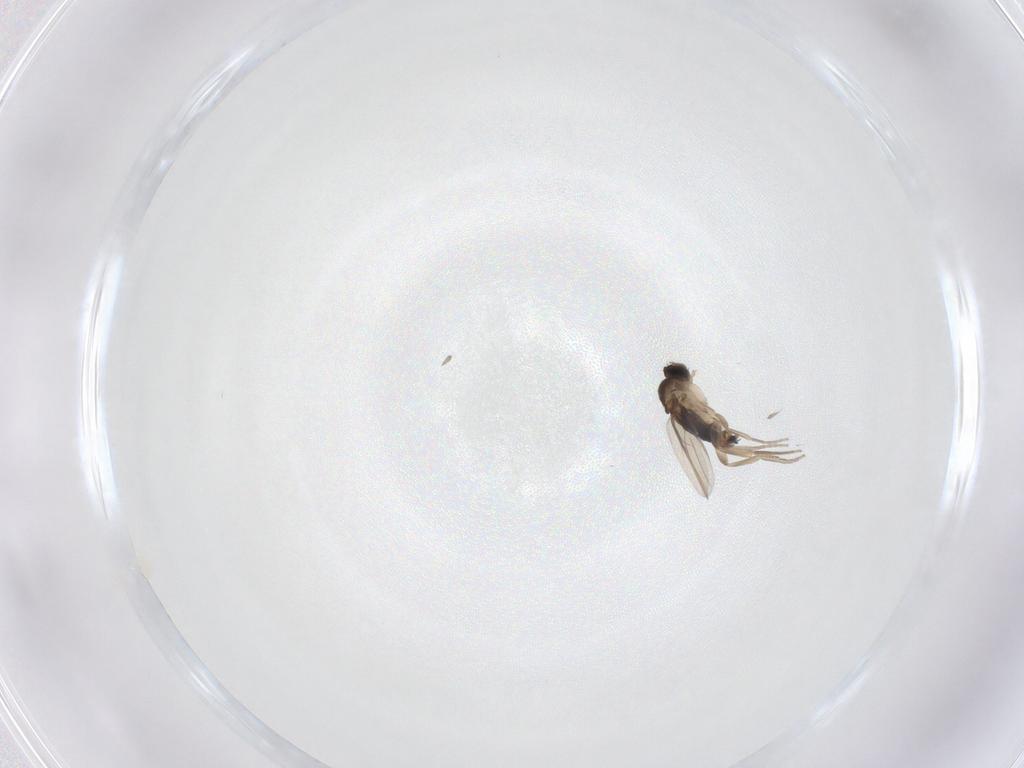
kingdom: Animalia
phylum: Arthropoda
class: Insecta
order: Diptera
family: Phoridae
